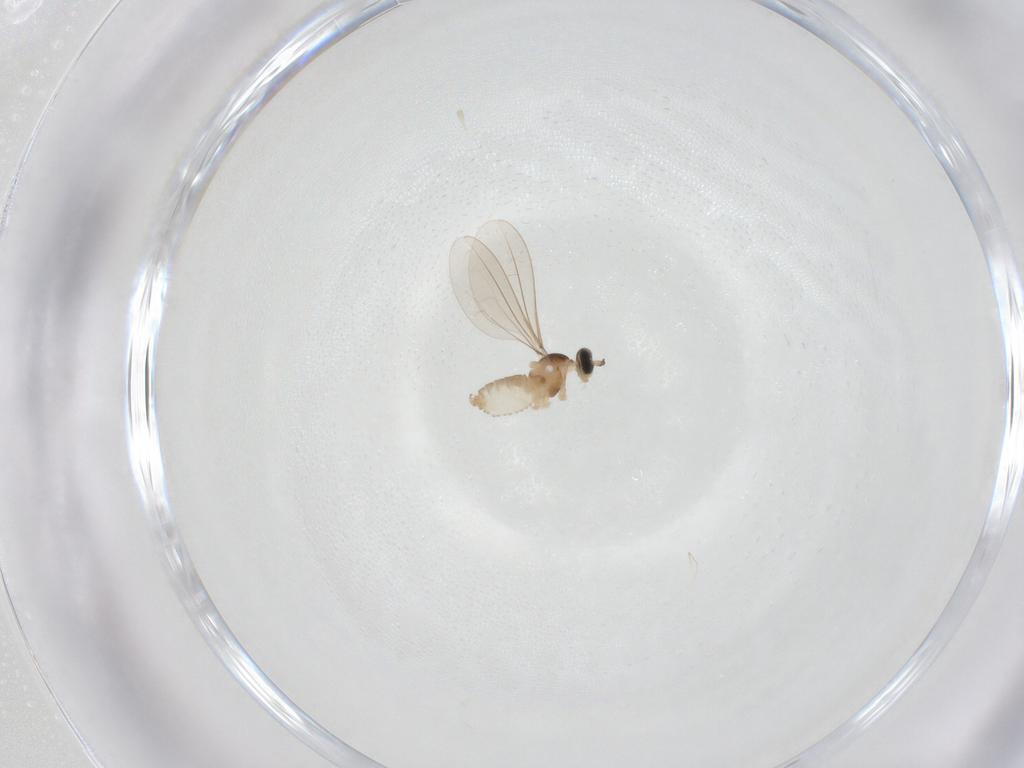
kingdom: Animalia
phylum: Arthropoda
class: Insecta
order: Diptera
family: Cecidomyiidae
